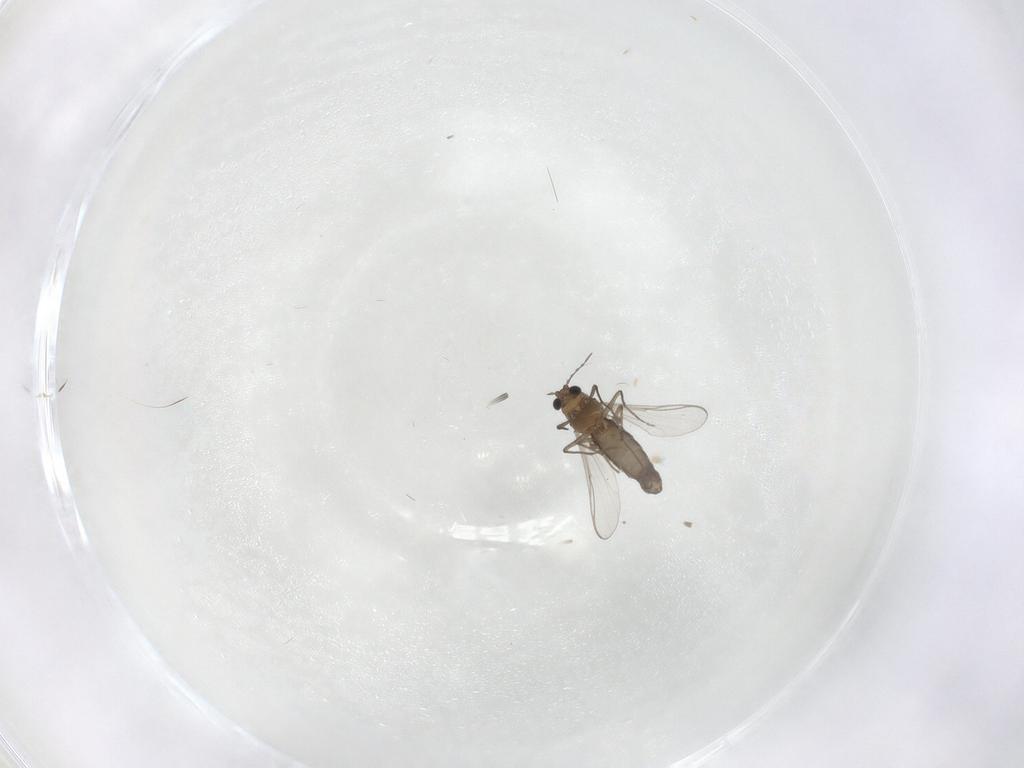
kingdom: Animalia
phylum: Arthropoda
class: Insecta
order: Diptera
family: Chironomidae
